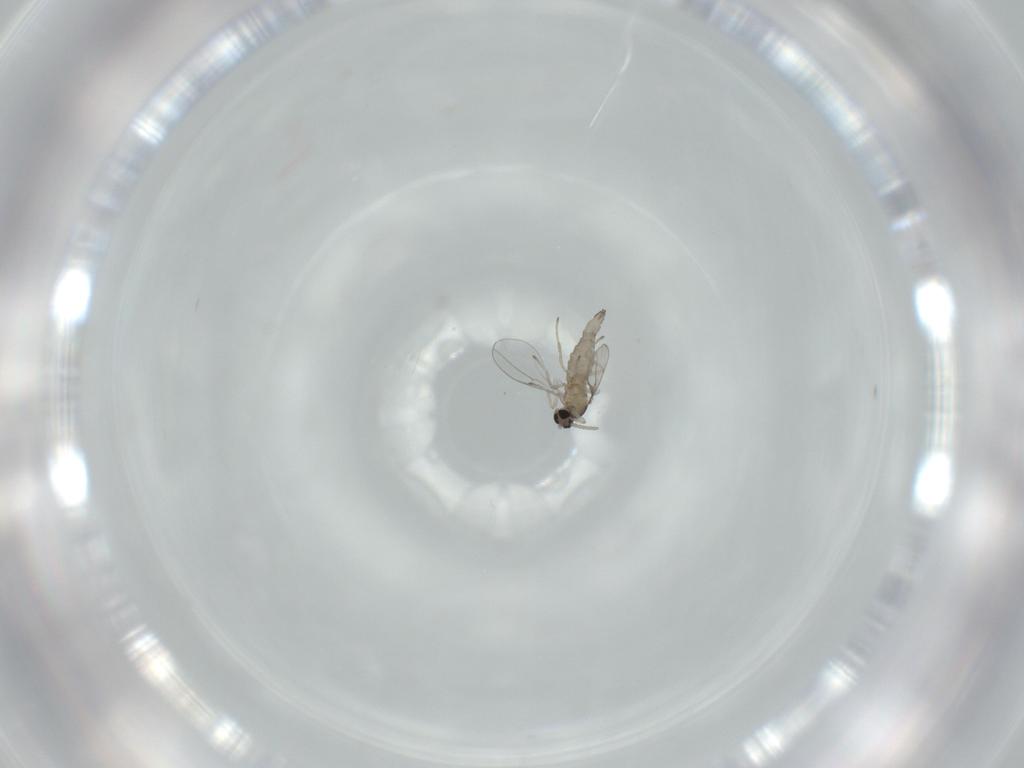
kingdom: Animalia
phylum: Arthropoda
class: Insecta
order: Diptera
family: Cecidomyiidae
